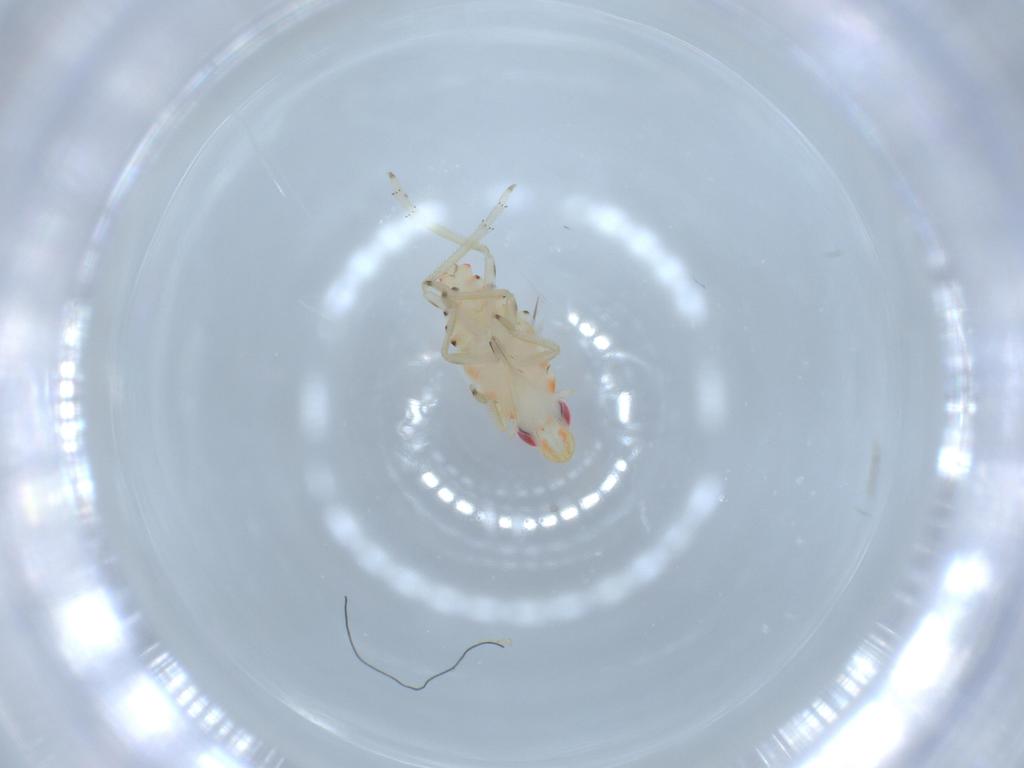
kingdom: Animalia
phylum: Arthropoda
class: Insecta
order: Hemiptera
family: Tropiduchidae
